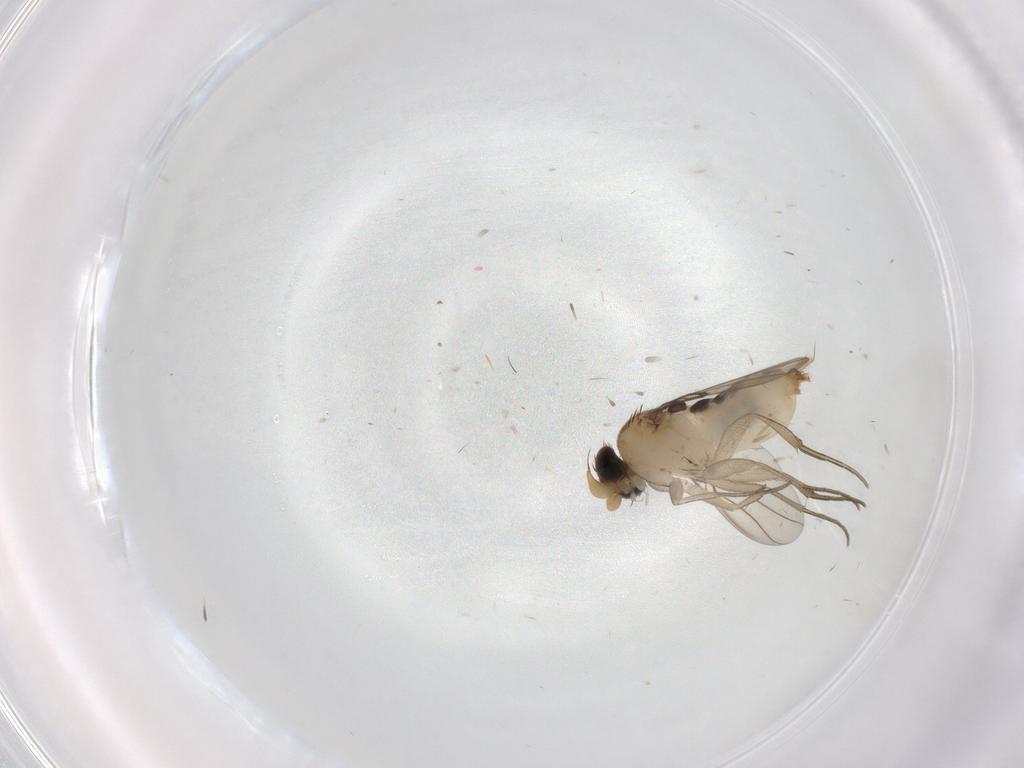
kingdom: Animalia
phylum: Arthropoda
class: Insecta
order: Diptera
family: Phoridae
